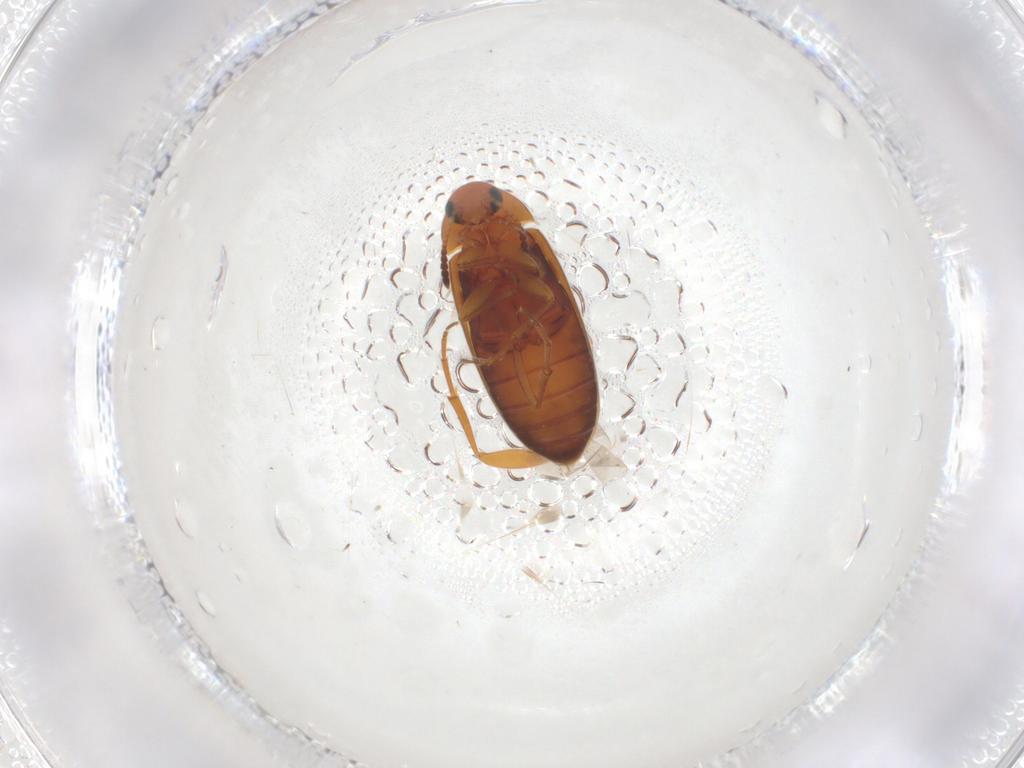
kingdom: Animalia
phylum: Arthropoda
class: Insecta
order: Coleoptera
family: Scraptiidae
